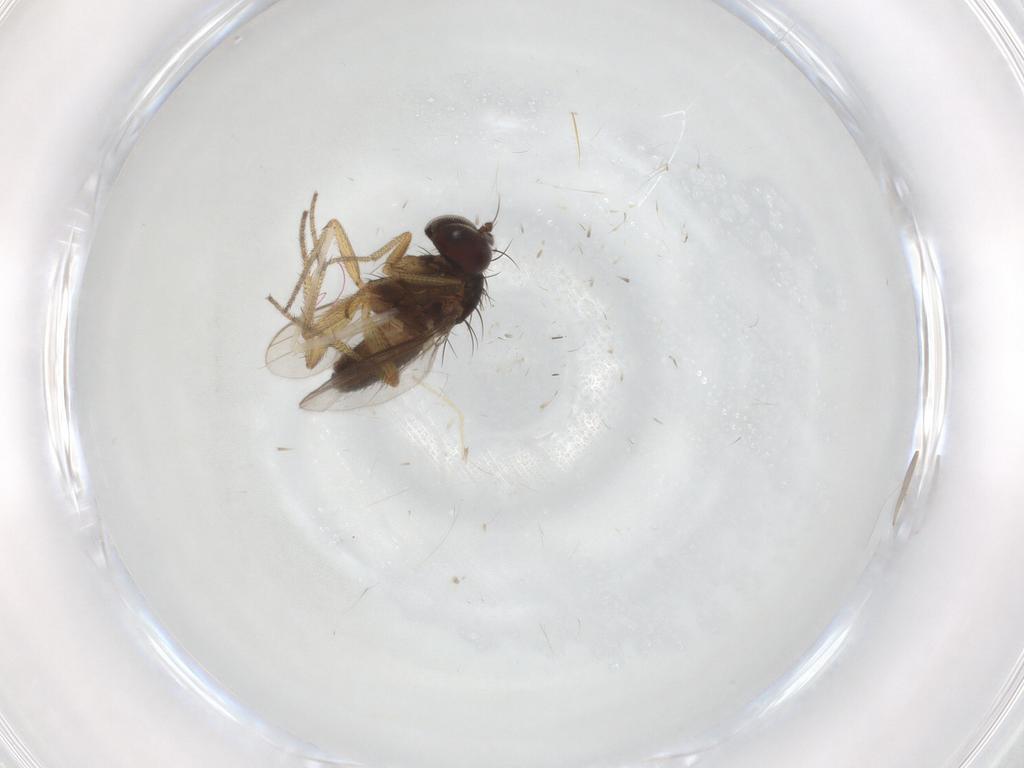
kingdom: Animalia
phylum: Arthropoda
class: Insecta
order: Diptera
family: Chironomidae
